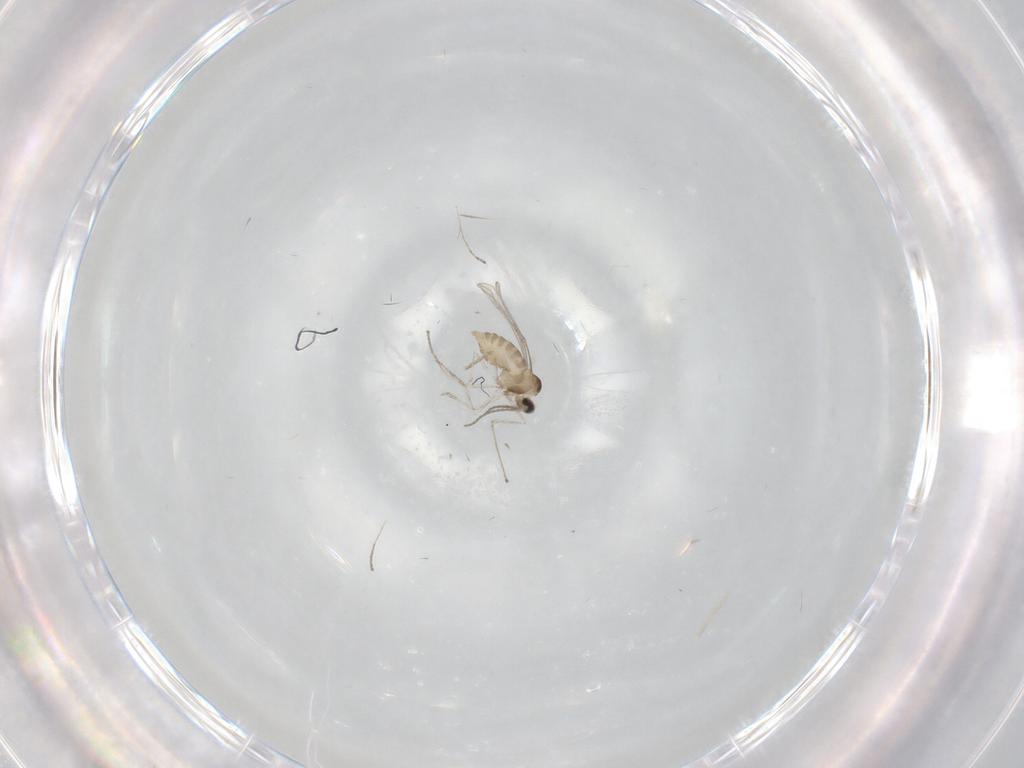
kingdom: Animalia
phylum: Arthropoda
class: Insecta
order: Diptera
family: Cecidomyiidae
